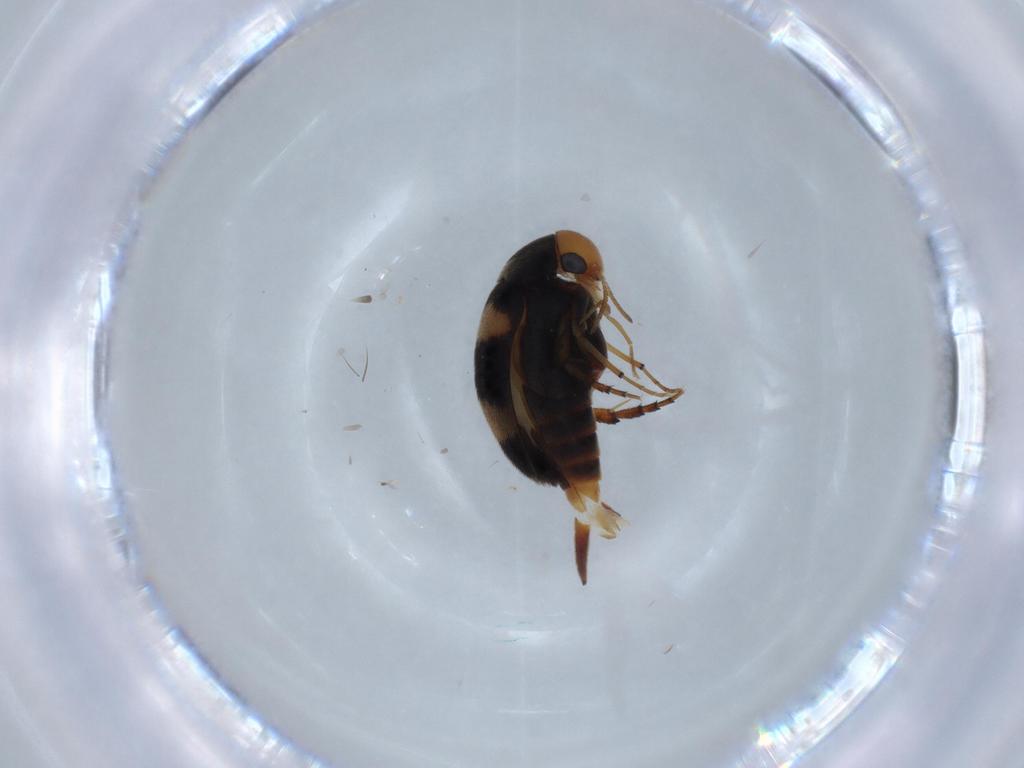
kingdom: Animalia
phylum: Arthropoda
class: Insecta
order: Coleoptera
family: Mordellidae
